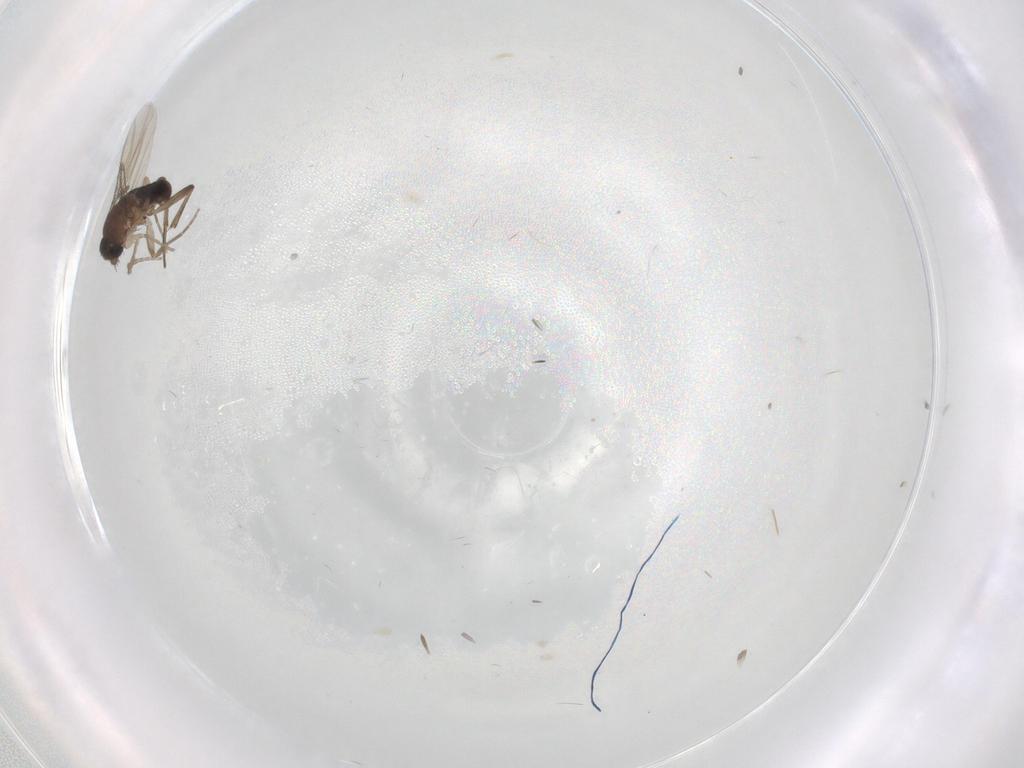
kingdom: Animalia
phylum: Arthropoda
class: Insecta
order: Diptera
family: Phoridae
